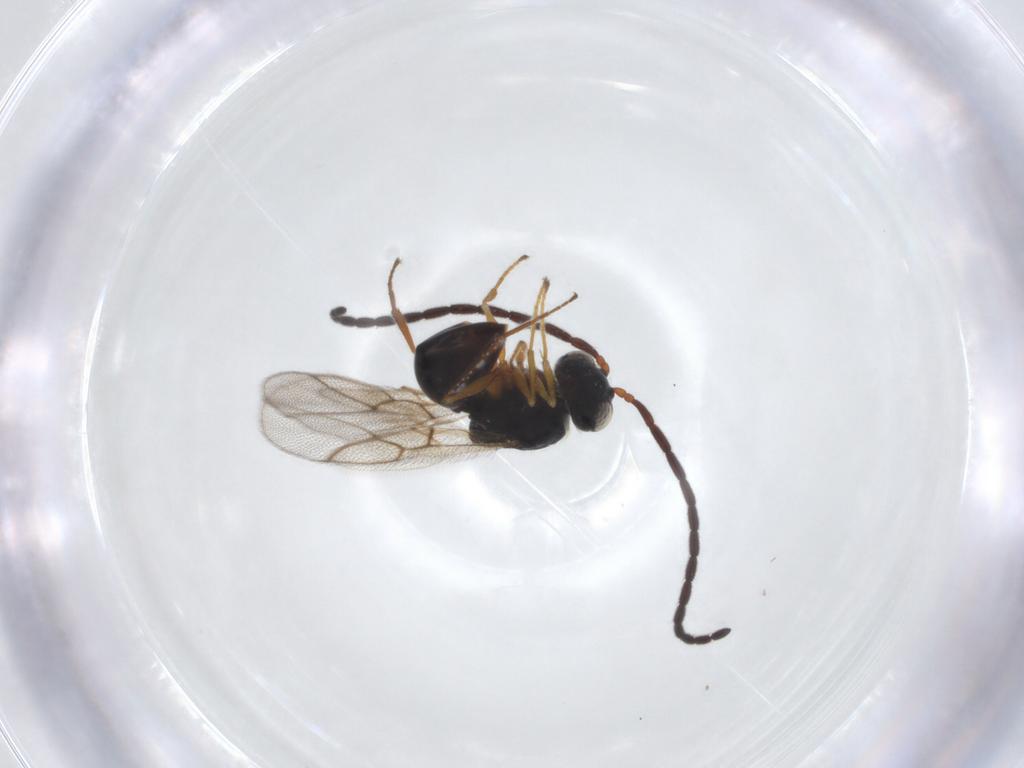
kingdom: Animalia
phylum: Arthropoda
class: Insecta
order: Hymenoptera
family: Figitidae
